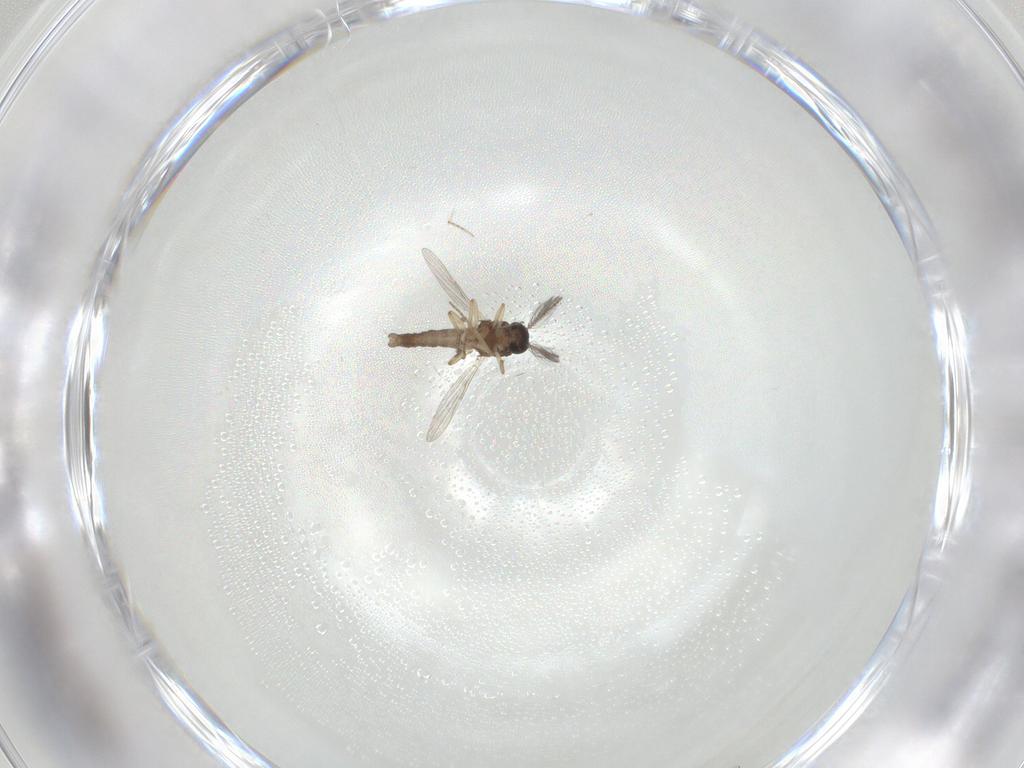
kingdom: Animalia
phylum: Arthropoda
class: Insecta
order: Diptera
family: Ceratopogonidae
